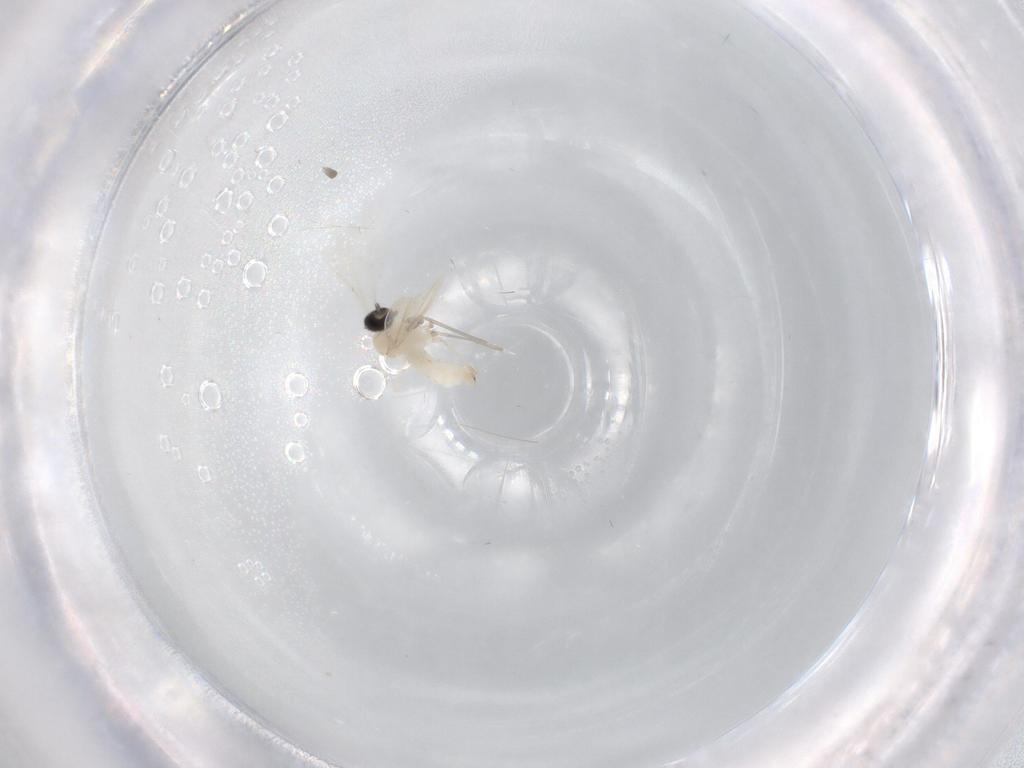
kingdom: Animalia
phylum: Arthropoda
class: Insecta
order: Diptera
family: Cecidomyiidae
